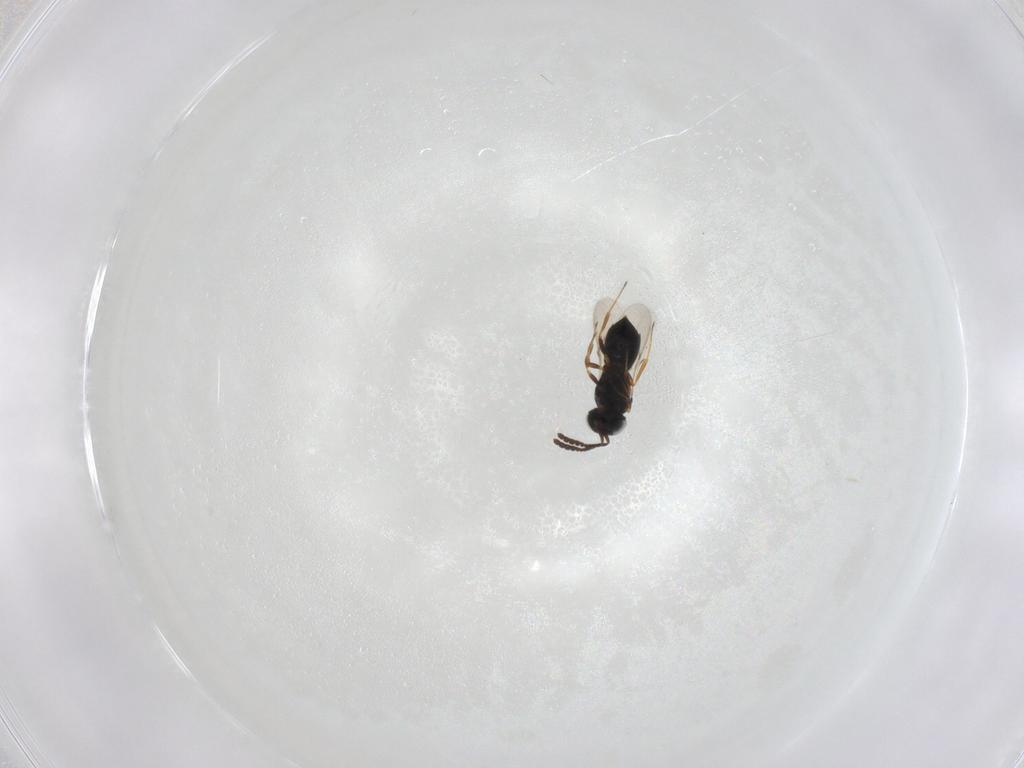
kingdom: Animalia
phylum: Arthropoda
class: Insecta
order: Hymenoptera
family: Scelionidae
